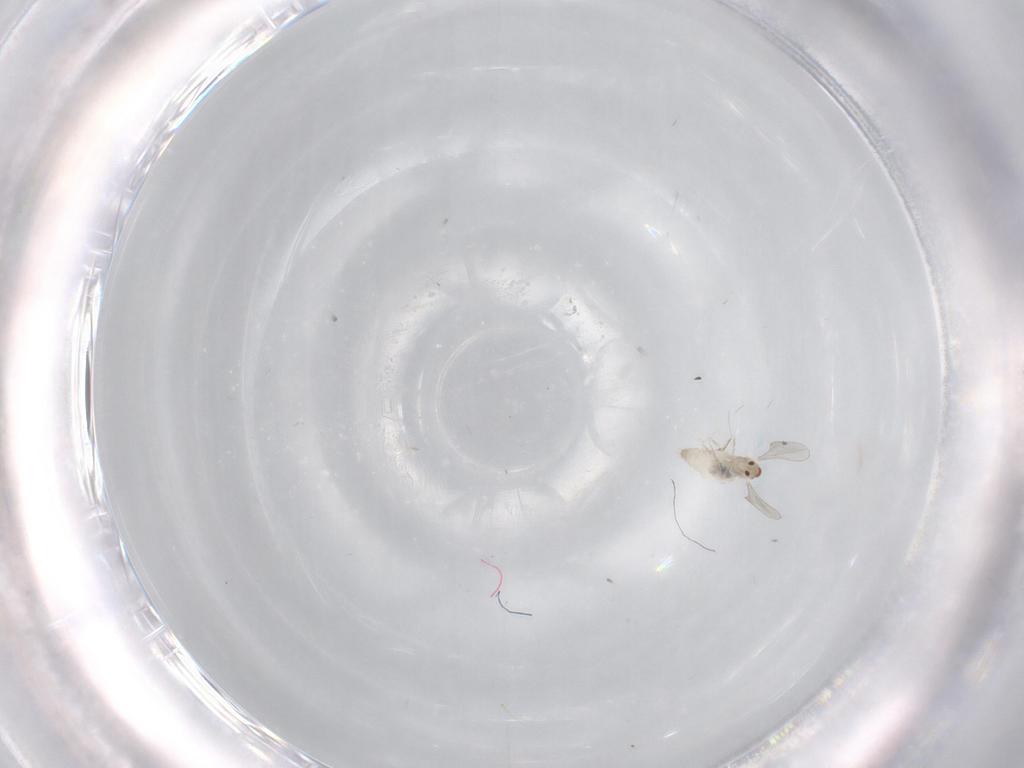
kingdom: Animalia
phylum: Arthropoda
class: Insecta
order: Diptera
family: Cecidomyiidae
